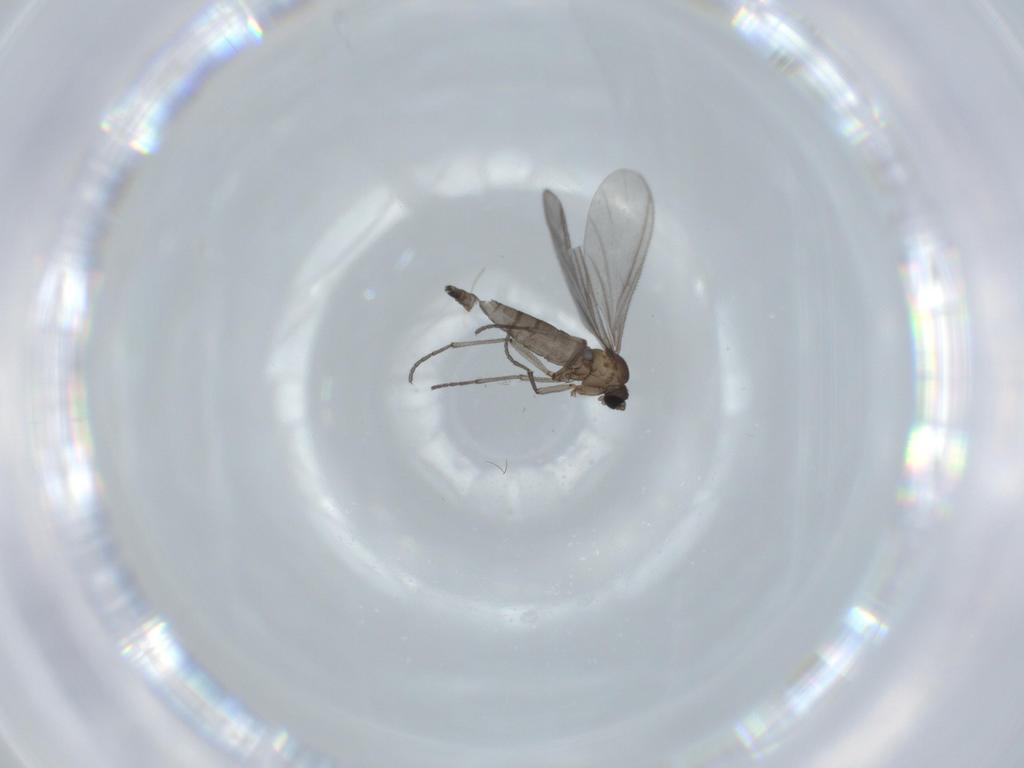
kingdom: Animalia
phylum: Arthropoda
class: Insecta
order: Diptera
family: Sciaridae
